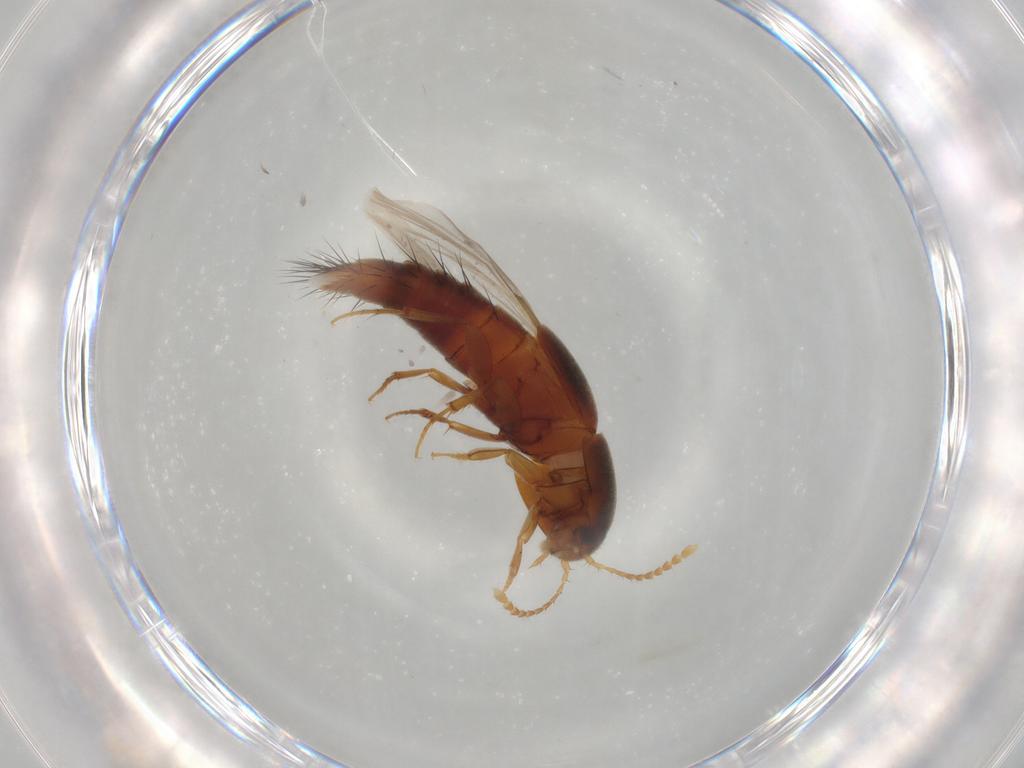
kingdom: Animalia
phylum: Arthropoda
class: Insecta
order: Coleoptera
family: Staphylinidae
